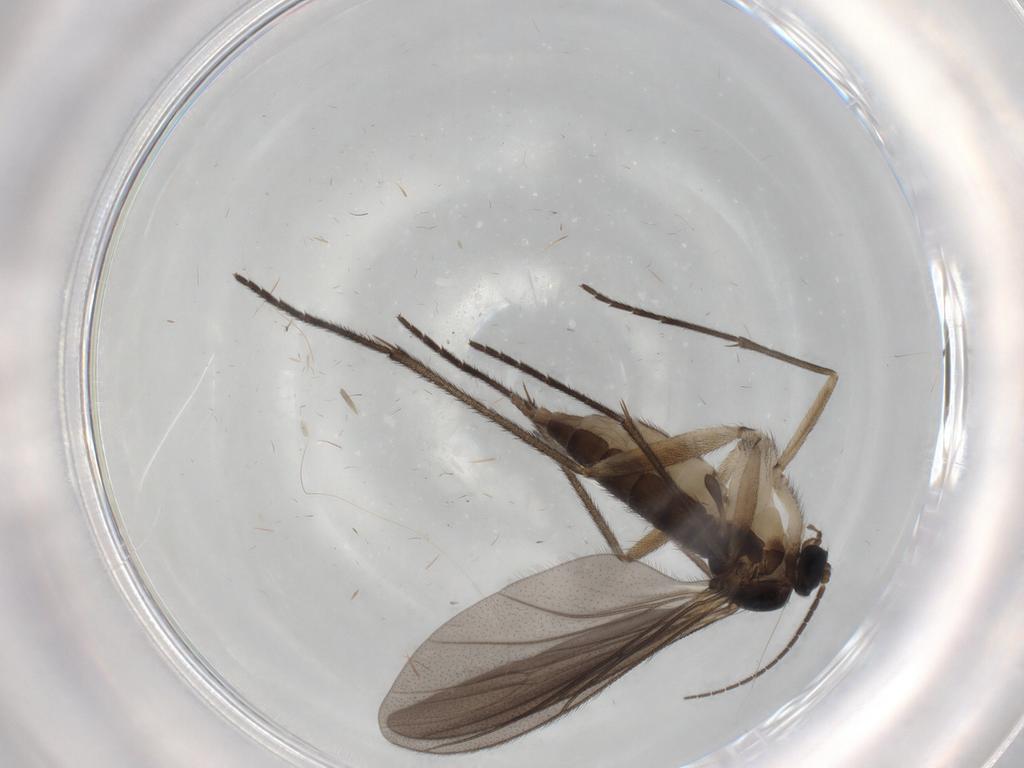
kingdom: Animalia
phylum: Arthropoda
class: Insecta
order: Diptera
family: Sciaridae
